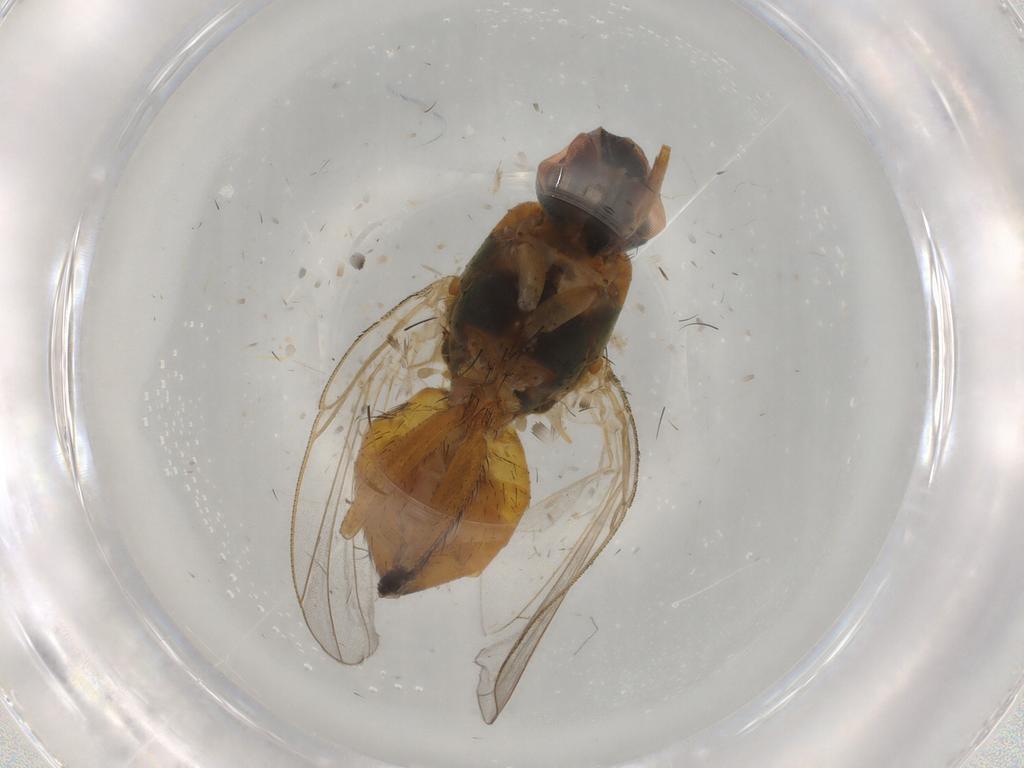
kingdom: Animalia
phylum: Arthropoda
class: Insecta
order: Diptera
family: Muscidae
